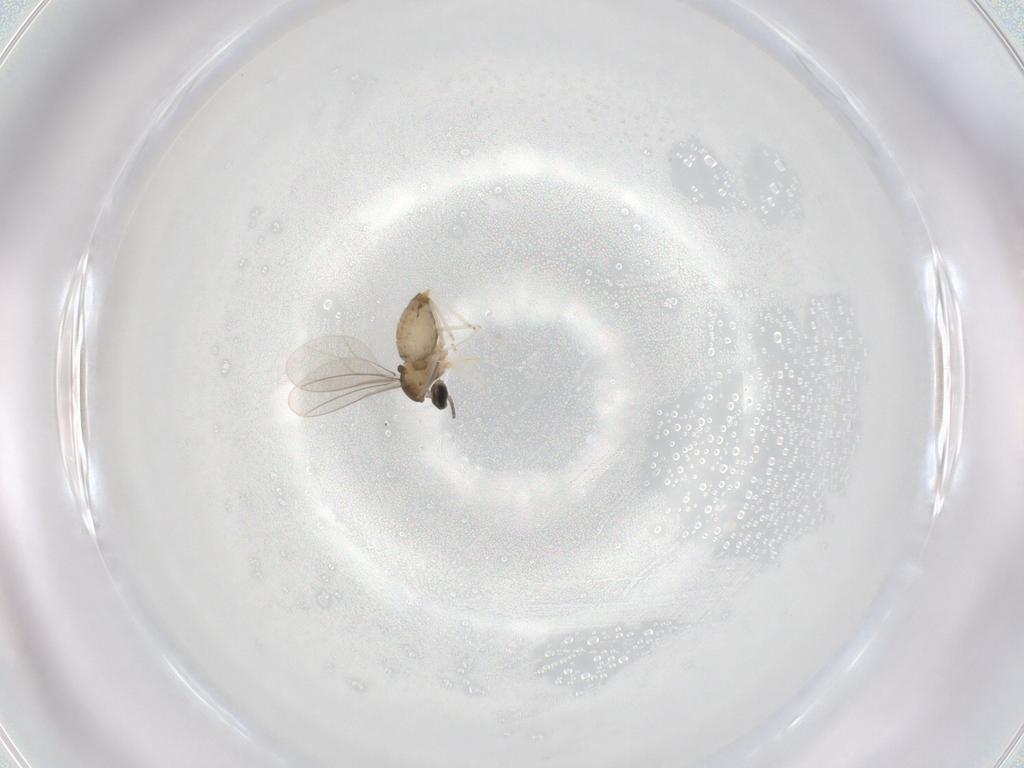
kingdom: Animalia
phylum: Arthropoda
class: Insecta
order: Diptera
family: Cecidomyiidae
